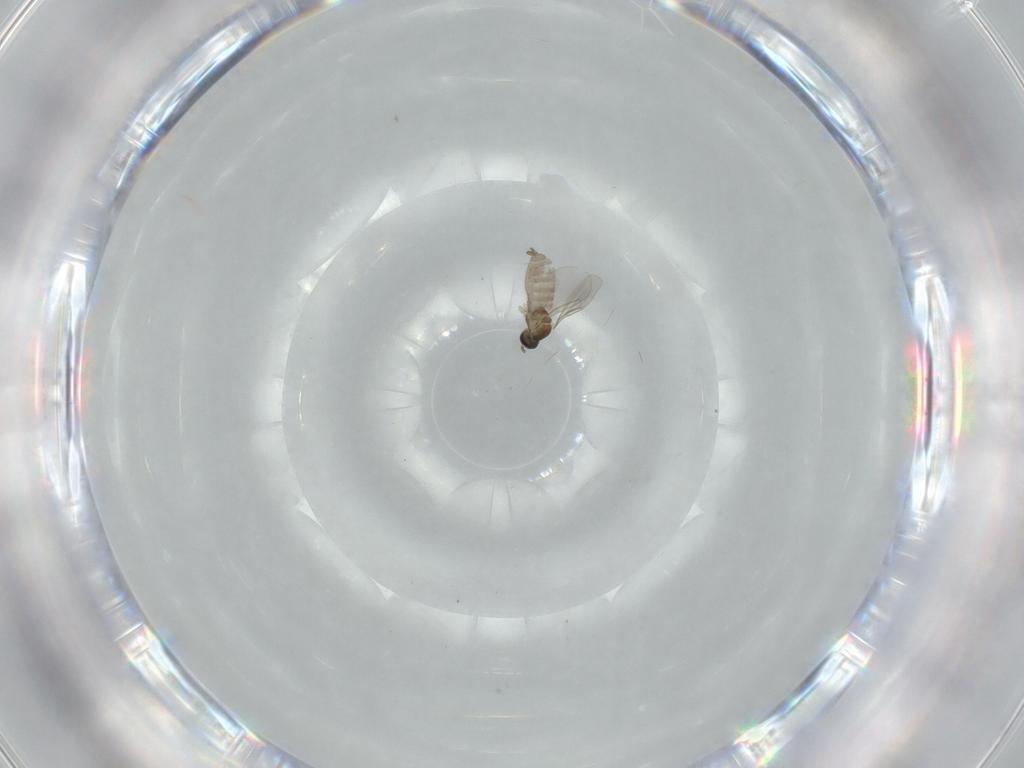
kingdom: Animalia
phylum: Arthropoda
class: Insecta
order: Diptera
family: Cecidomyiidae
